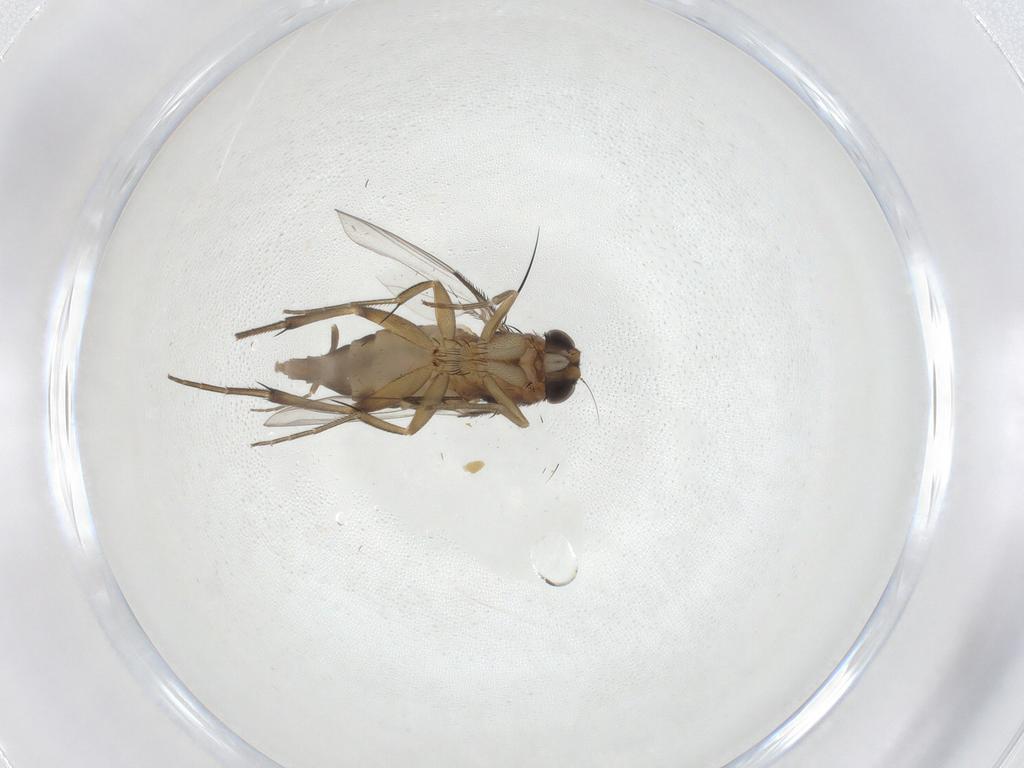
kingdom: Animalia
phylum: Arthropoda
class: Insecta
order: Diptera
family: Phoridae
